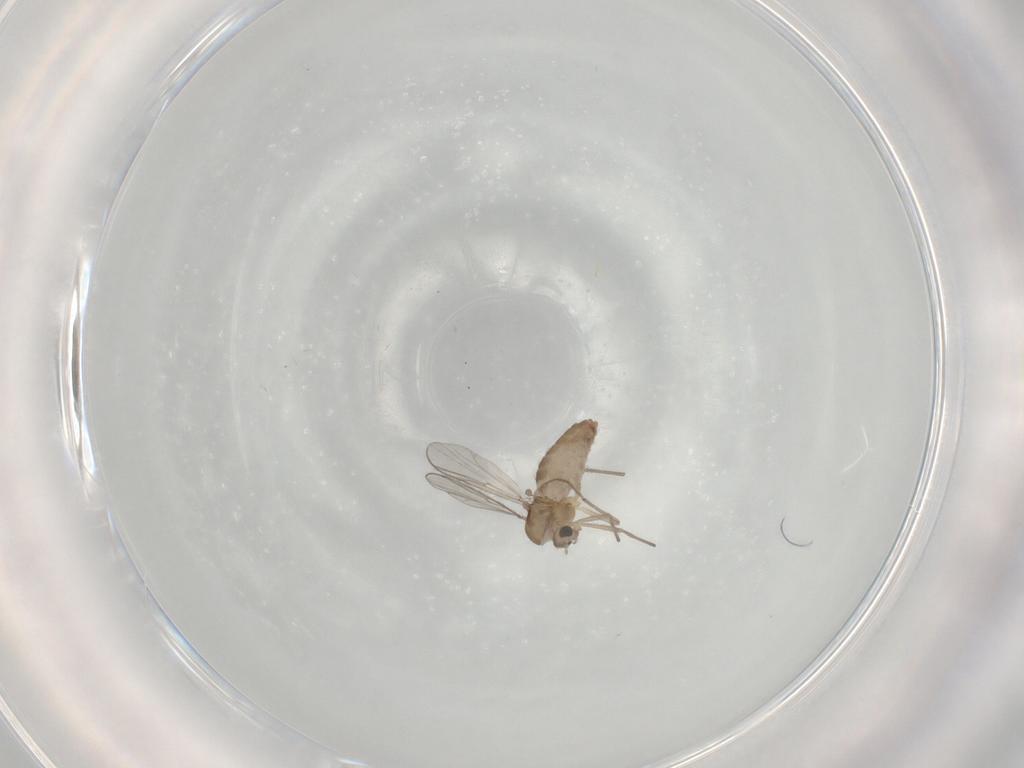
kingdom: Animalia
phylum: Arthropoda
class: Insecta
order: Diptera
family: Chironomidae
